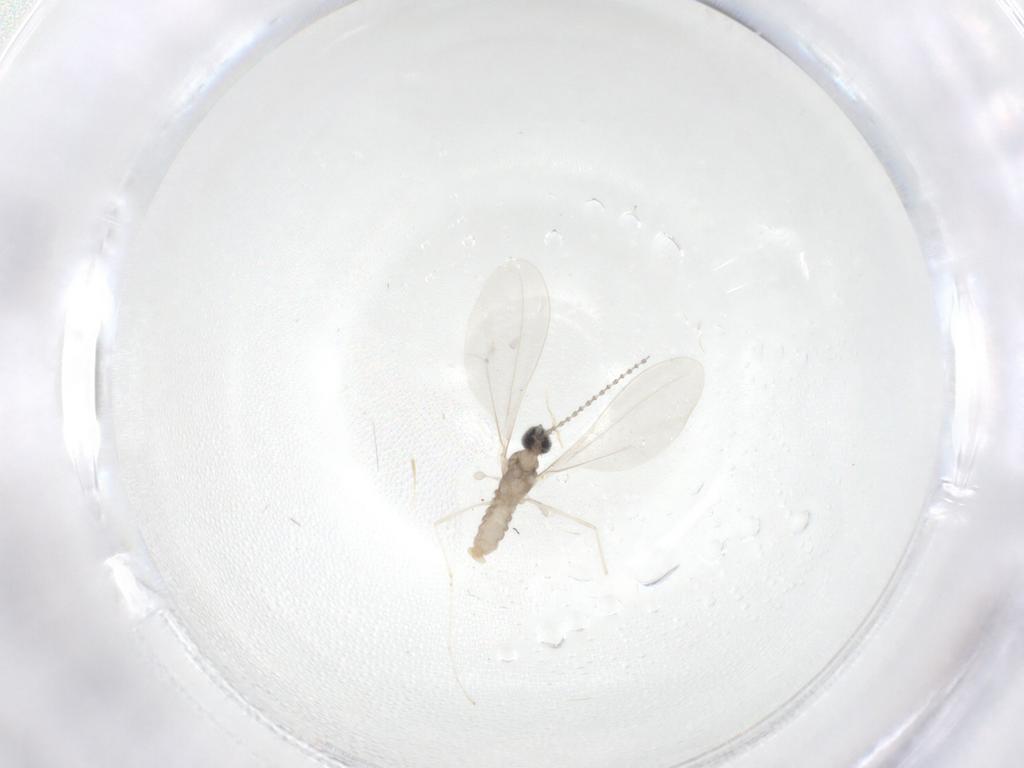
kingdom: Animalia
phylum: Arthropoda
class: Insecta
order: Diptera
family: Cecidomyiidae
